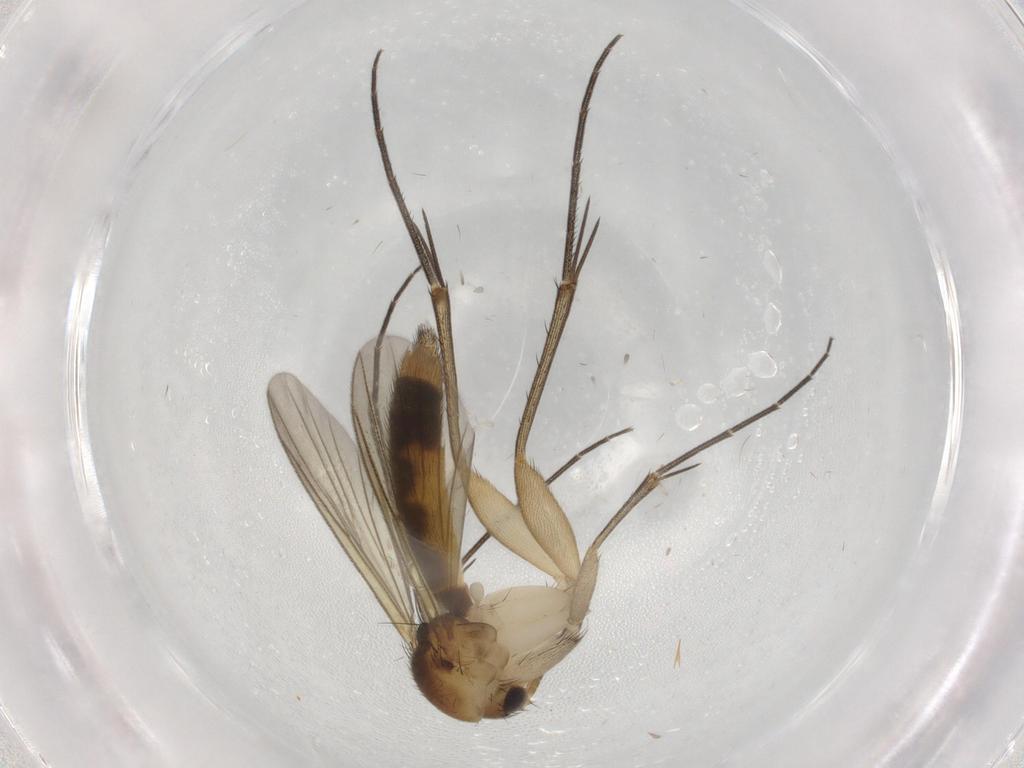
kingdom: Animalia
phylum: Arthropoda
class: Insecta
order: Diptera
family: Mycetophilidae
